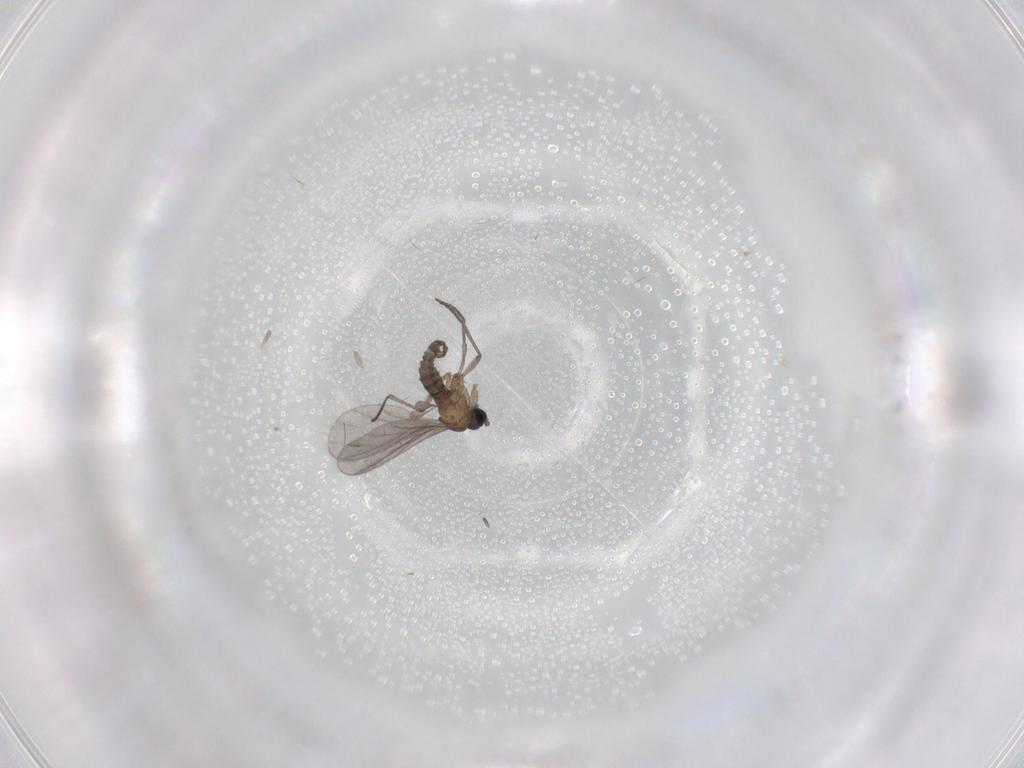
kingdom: Animalia
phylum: Arthropoda
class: Insecta
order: Diptera
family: Sciaridae
